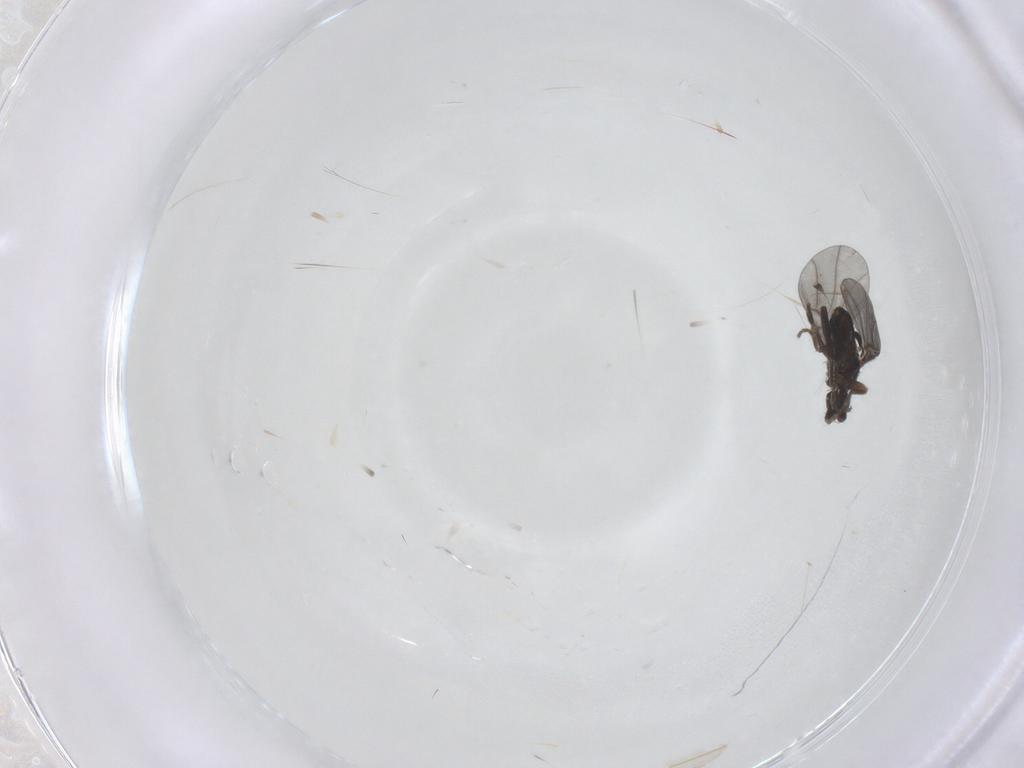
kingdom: Animalia
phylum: Arthropoda
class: Insecta
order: Diptera
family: Cecidomyiidae
